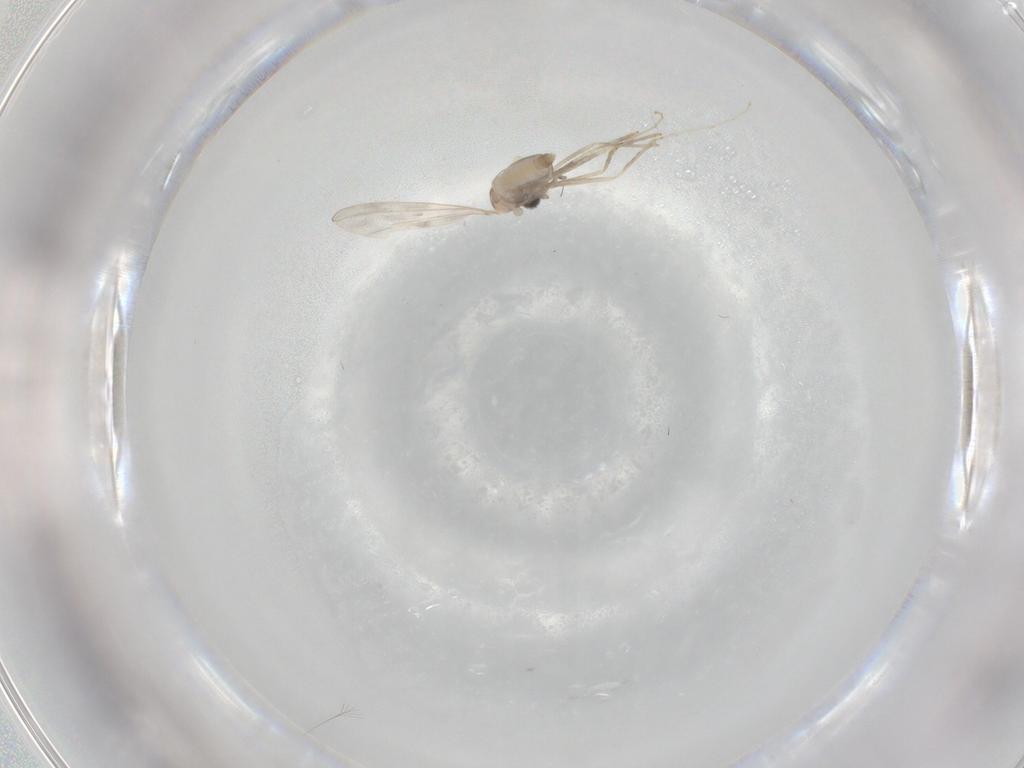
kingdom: Animalia
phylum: Arthropoda
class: Insecta
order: Diptera
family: Cecidomyiidae
